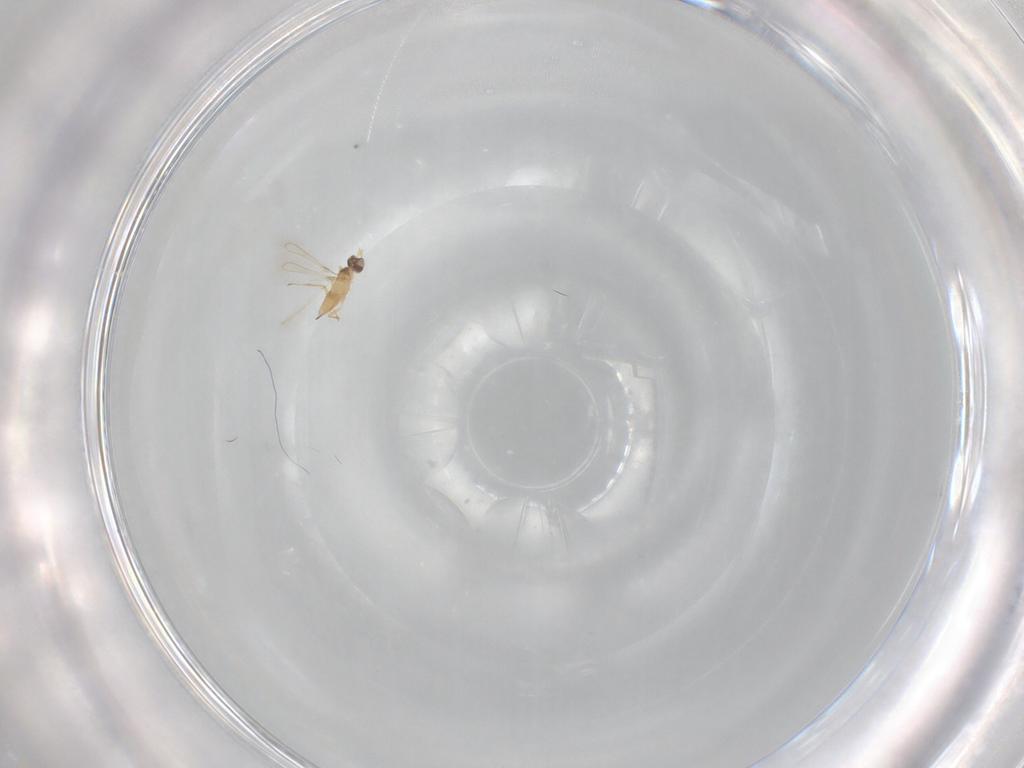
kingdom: Animalia
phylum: Arthropoda
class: Insecta
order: Hymenoptera
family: Mymaridae
